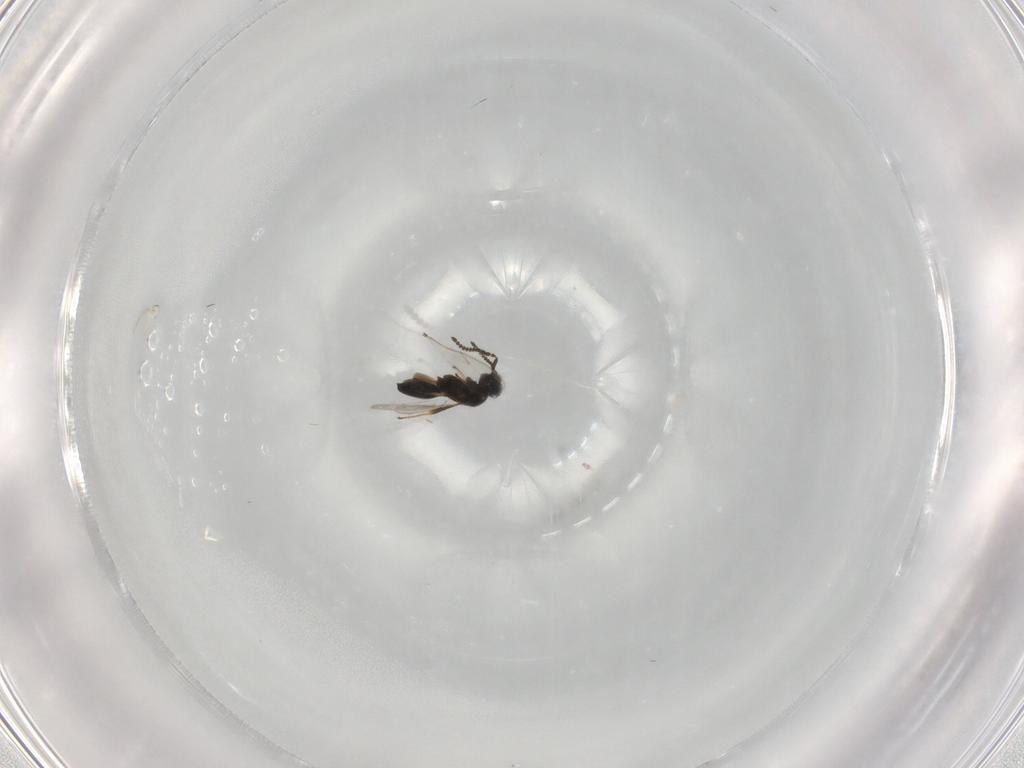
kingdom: Animalia
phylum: Arthropoda
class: Insecta
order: Hymenoptera
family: Scelionidae
